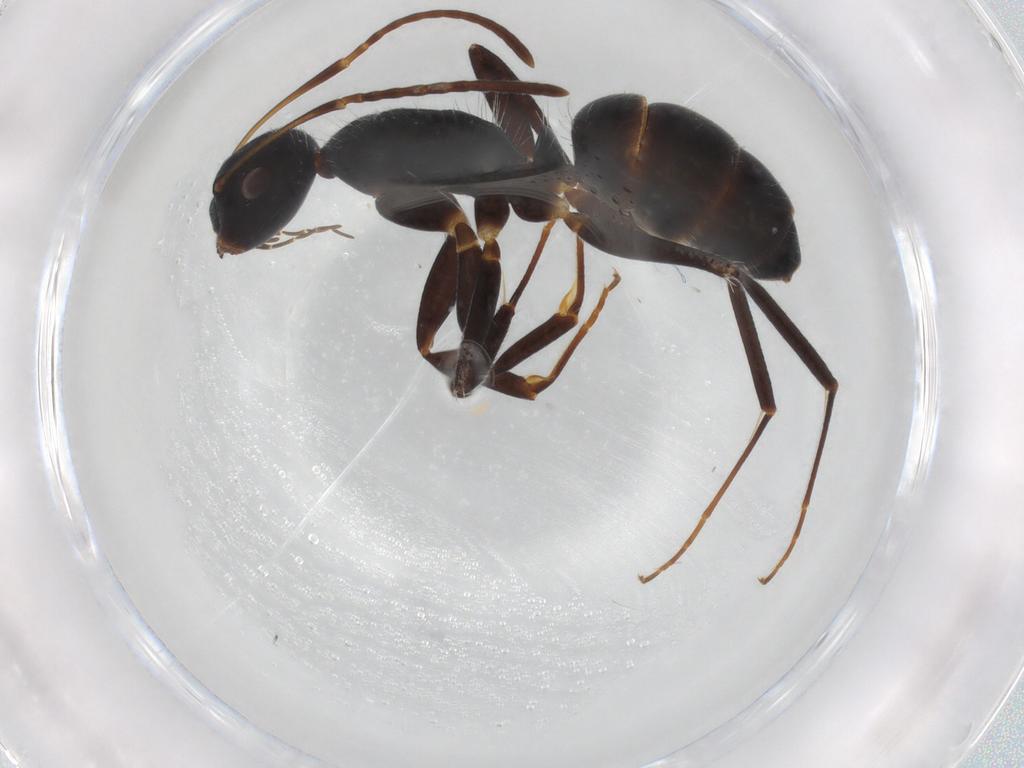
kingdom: Animalia
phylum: Arthropoda
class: Insecta
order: Hymenoptera
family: Formicidae
